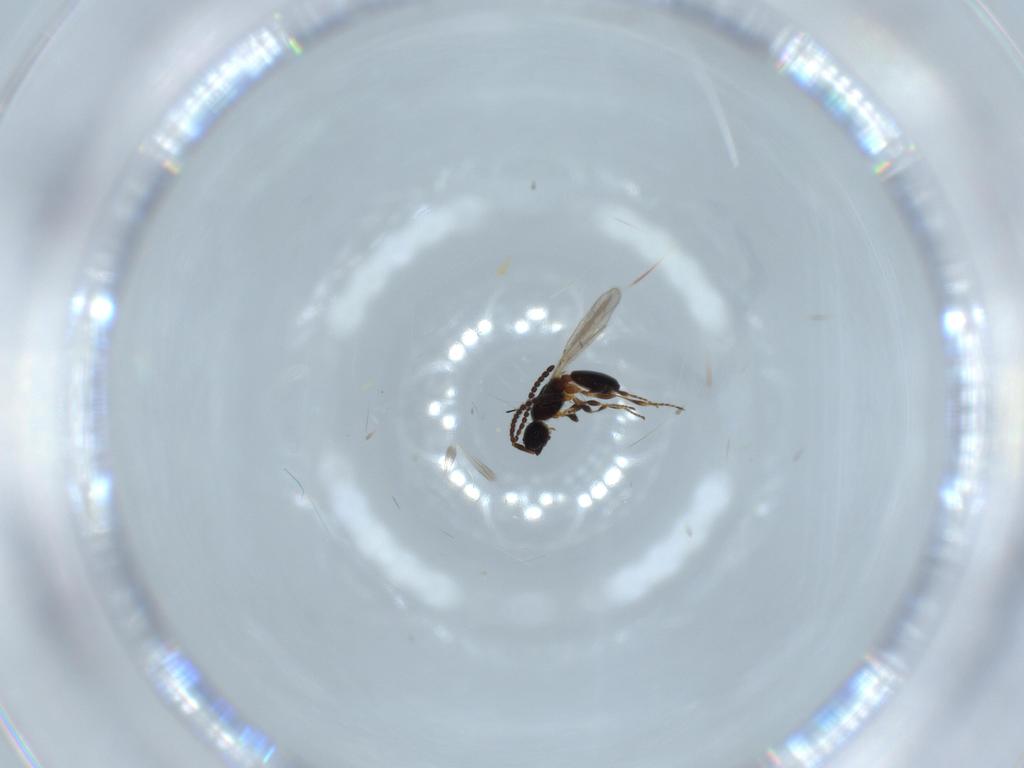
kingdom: Animalia
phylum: Arthropoda
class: Insecta
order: Hymenoptera
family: Diapriidae
